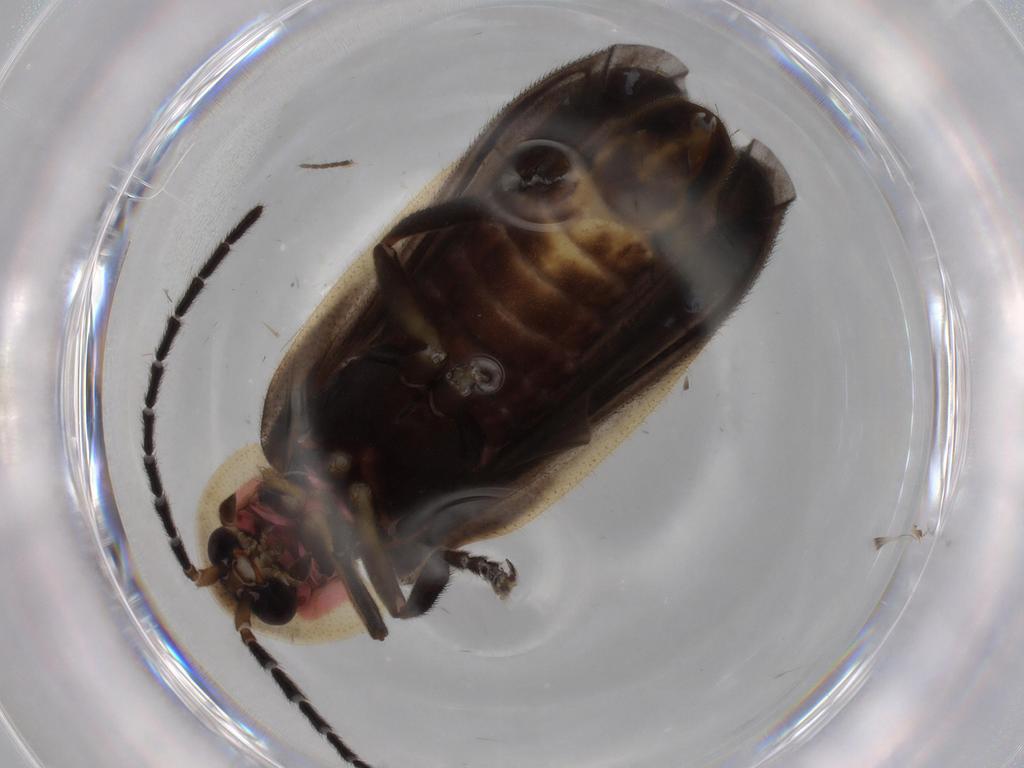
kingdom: Animalia
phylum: Arthropoda
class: Insecta
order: Coleoptera
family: Lampyridae
